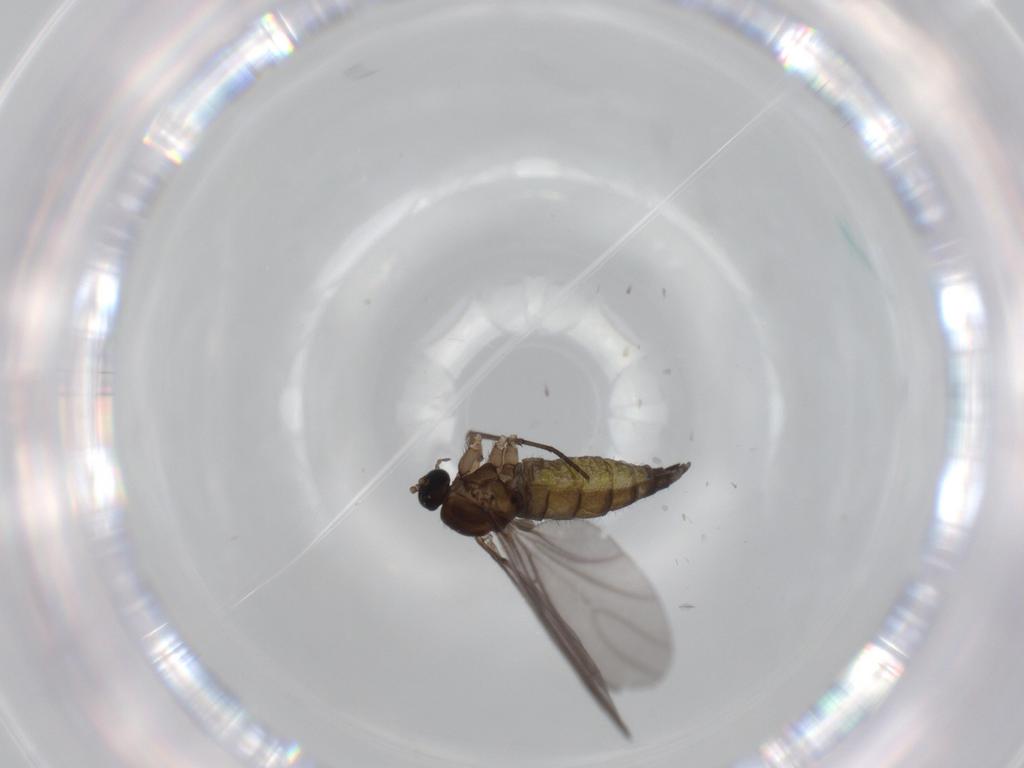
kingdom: Animalia
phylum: Arthropoda
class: Insecta
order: Diptera
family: Sciaridae
